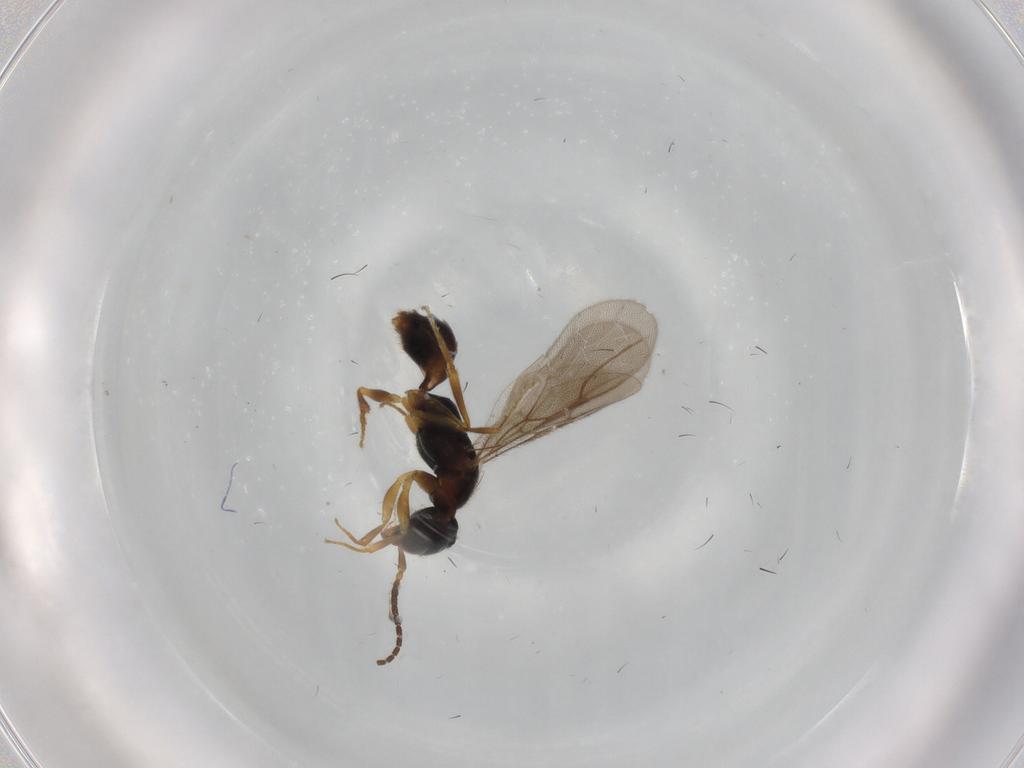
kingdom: Animalia
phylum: Arthropoda
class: Insecta
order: Hymenoptera
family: Bethylidae
